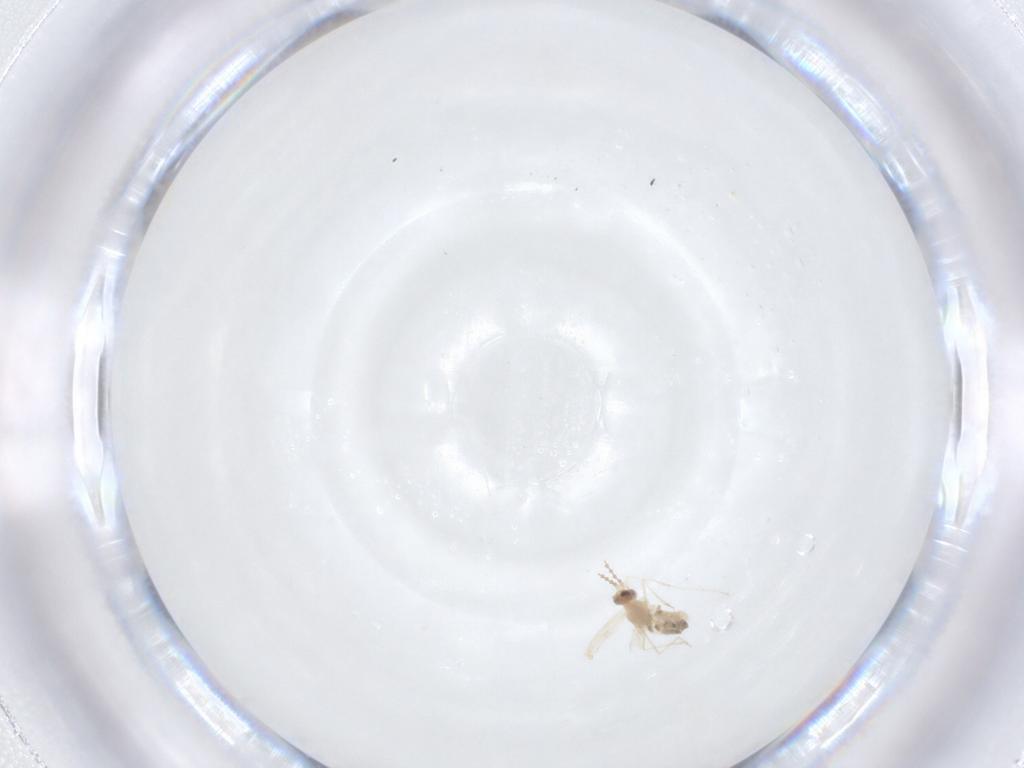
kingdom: Animalia
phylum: Arthropoda
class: Insecta
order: Diptera
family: Cecidomyiidae
